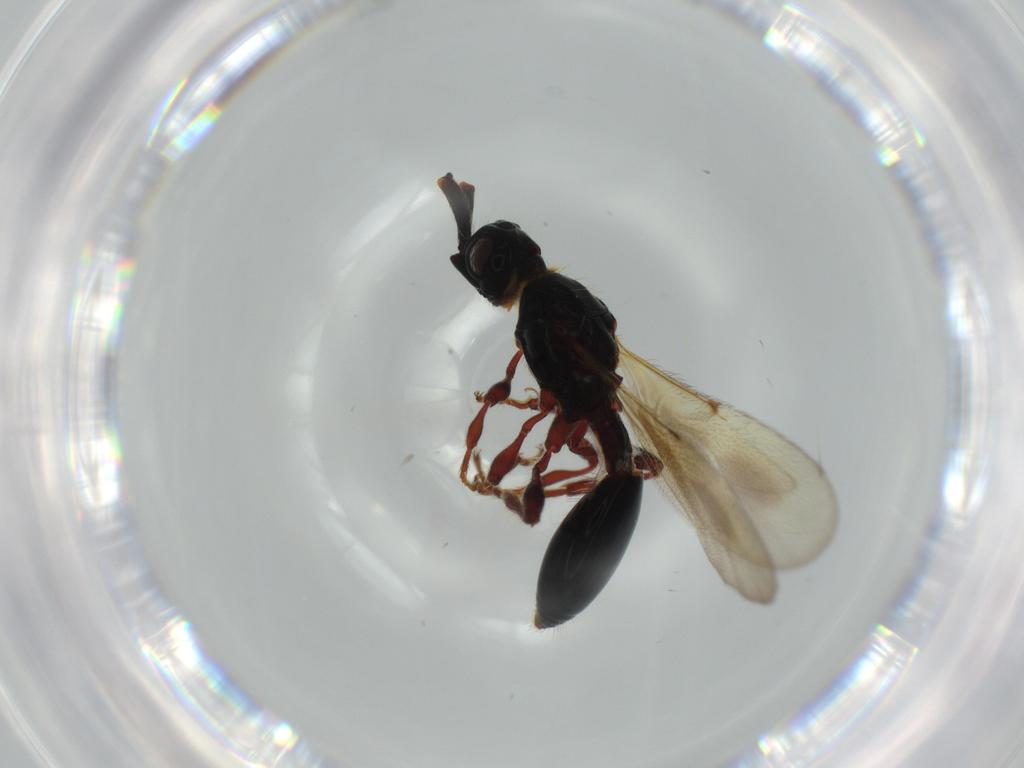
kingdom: Animalia
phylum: Arthropoda
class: Insecta
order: Hymenoptera
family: Diapriidae
